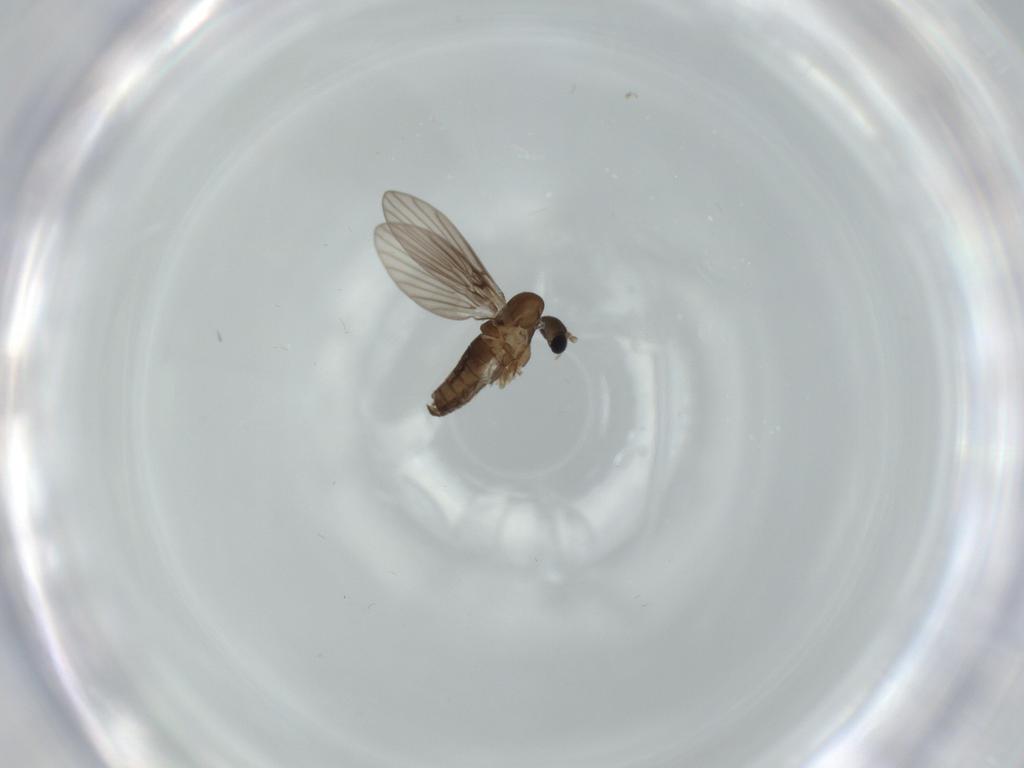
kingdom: Animalia
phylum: Arthropoda
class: Insecta
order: Diptera
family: Psychodidae
